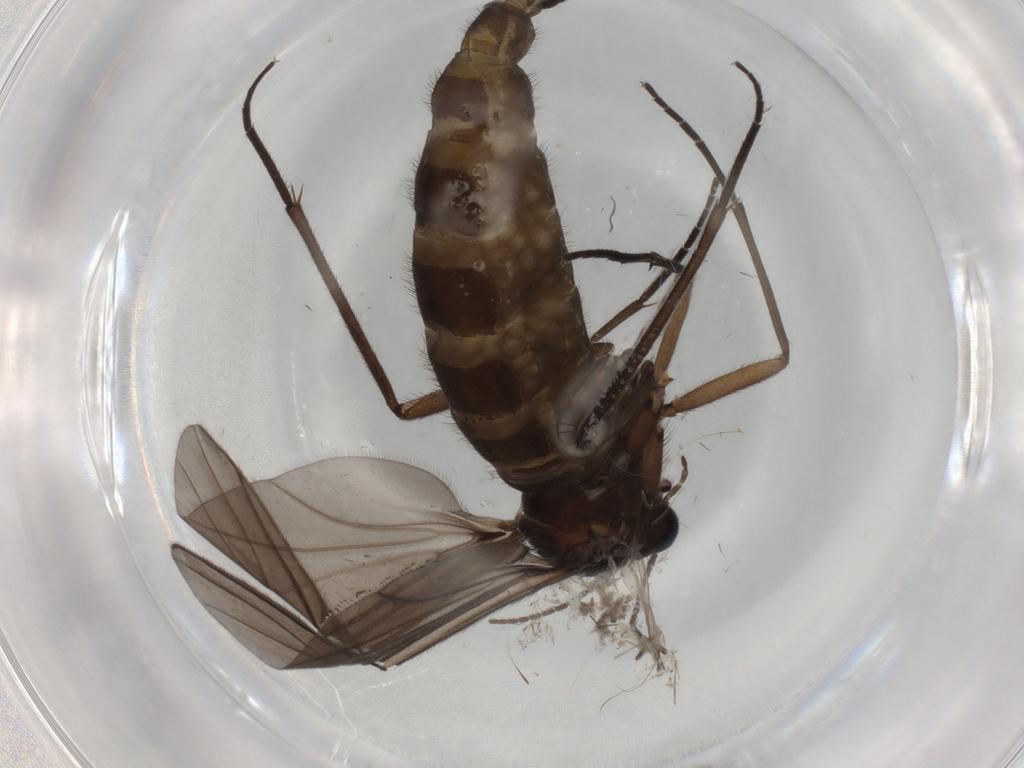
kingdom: Animalia
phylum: Arthropoda
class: Insecta
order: Diptera
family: Sciaridae
